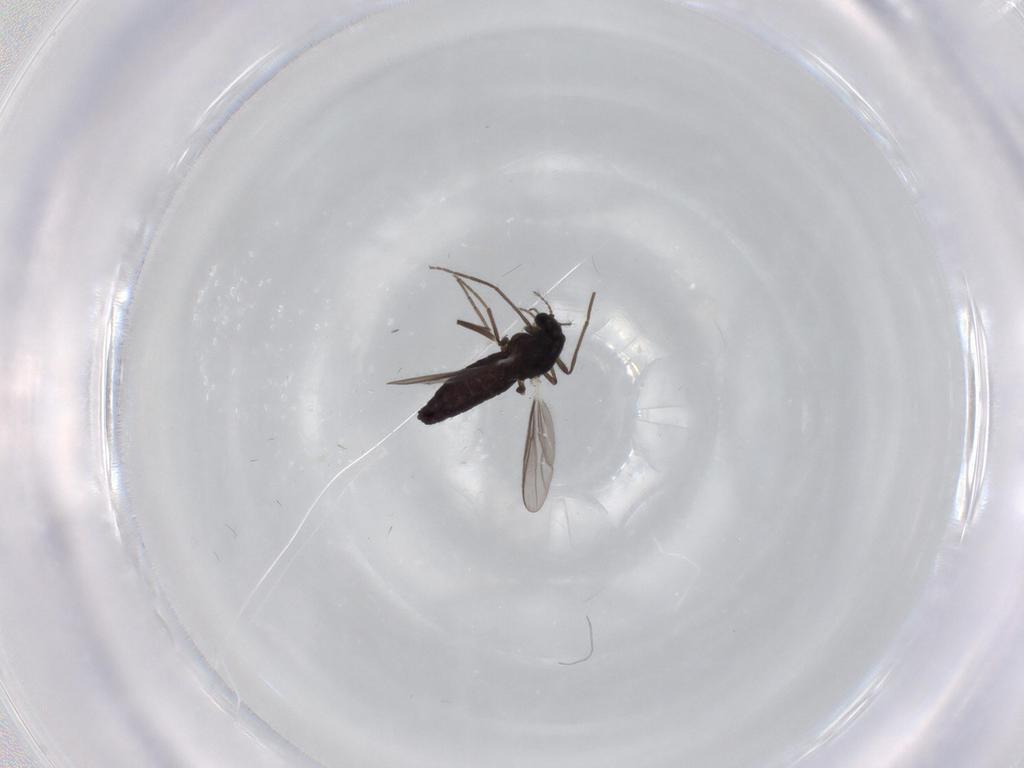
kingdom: Animalia
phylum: Arthropoda
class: Insecta
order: Diptera
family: Chironomidae
